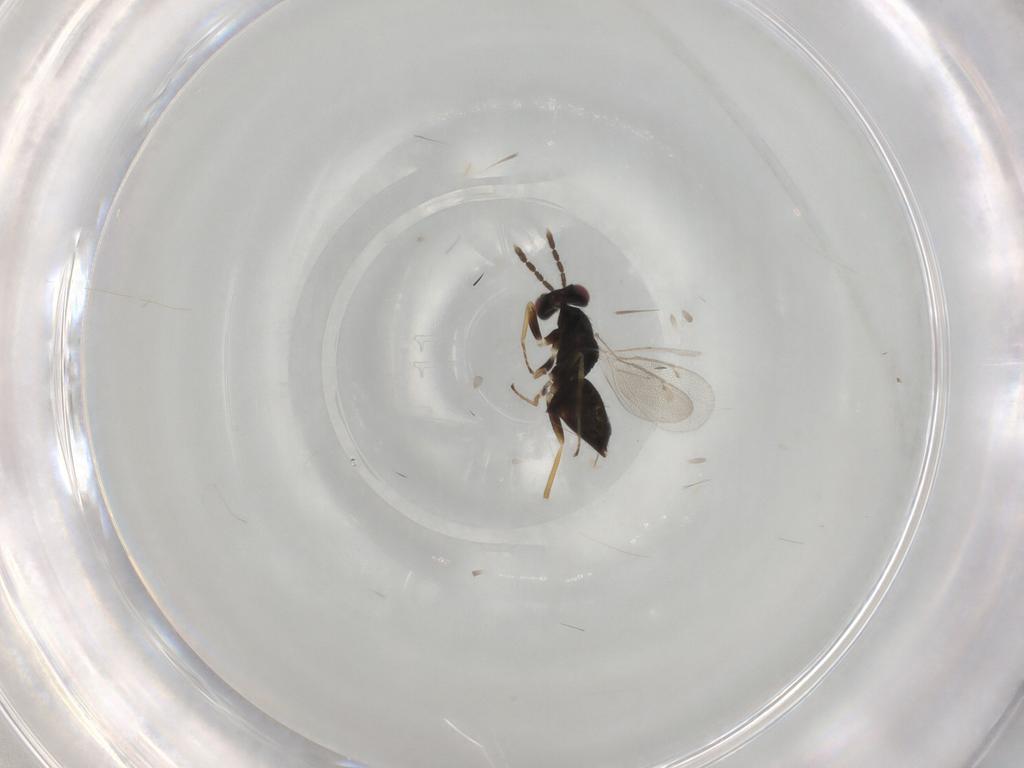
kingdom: Animalia
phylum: Arthropoda
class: Insecta
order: Hymenoptera
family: Eulophidae
